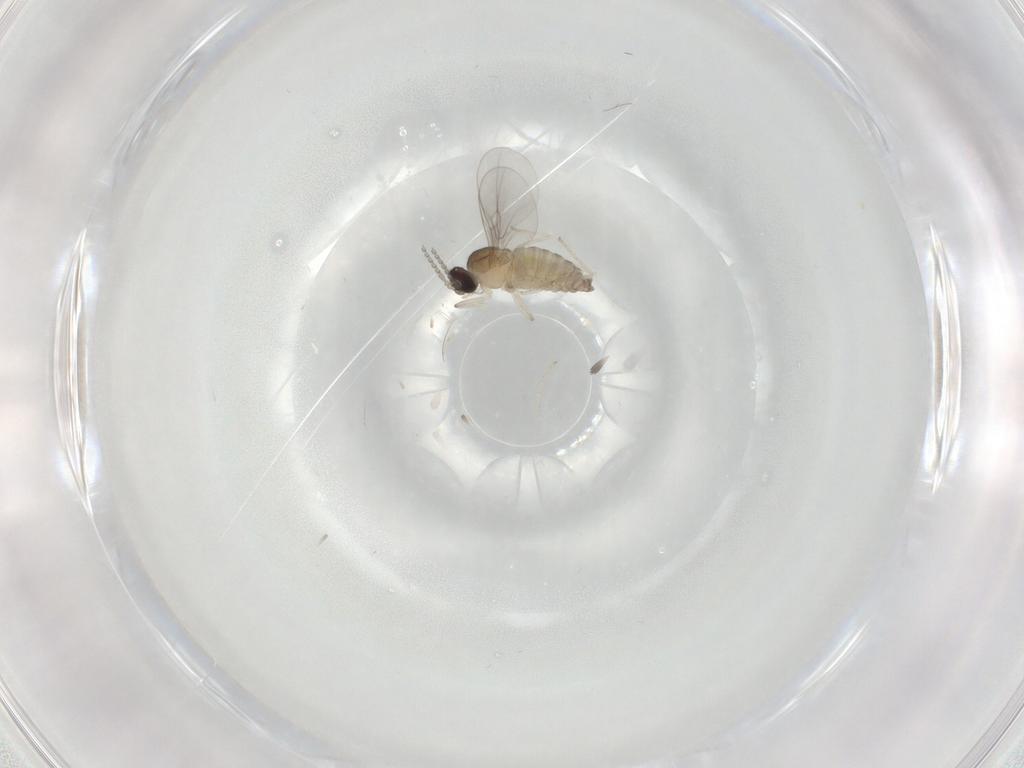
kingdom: Animalia
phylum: Arthropoda
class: Insecta
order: Diptera
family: Cecidomyiidae
